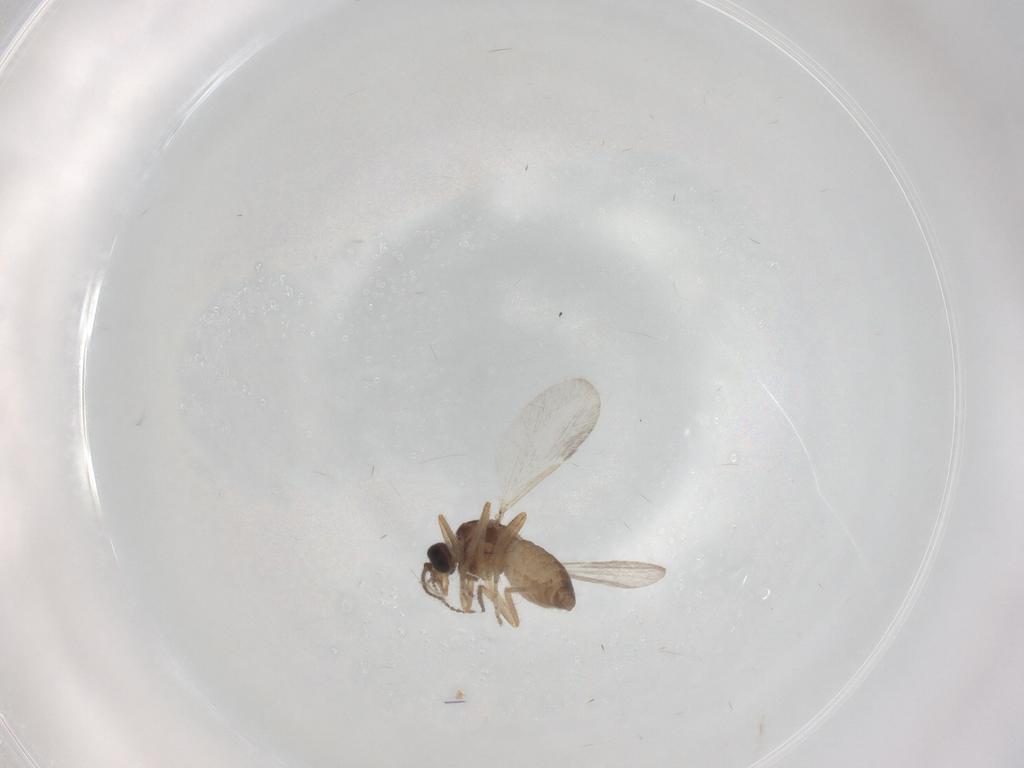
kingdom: Animalia
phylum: Arthropoda
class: Insecta
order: Diptera
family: Ceratopogonidae
